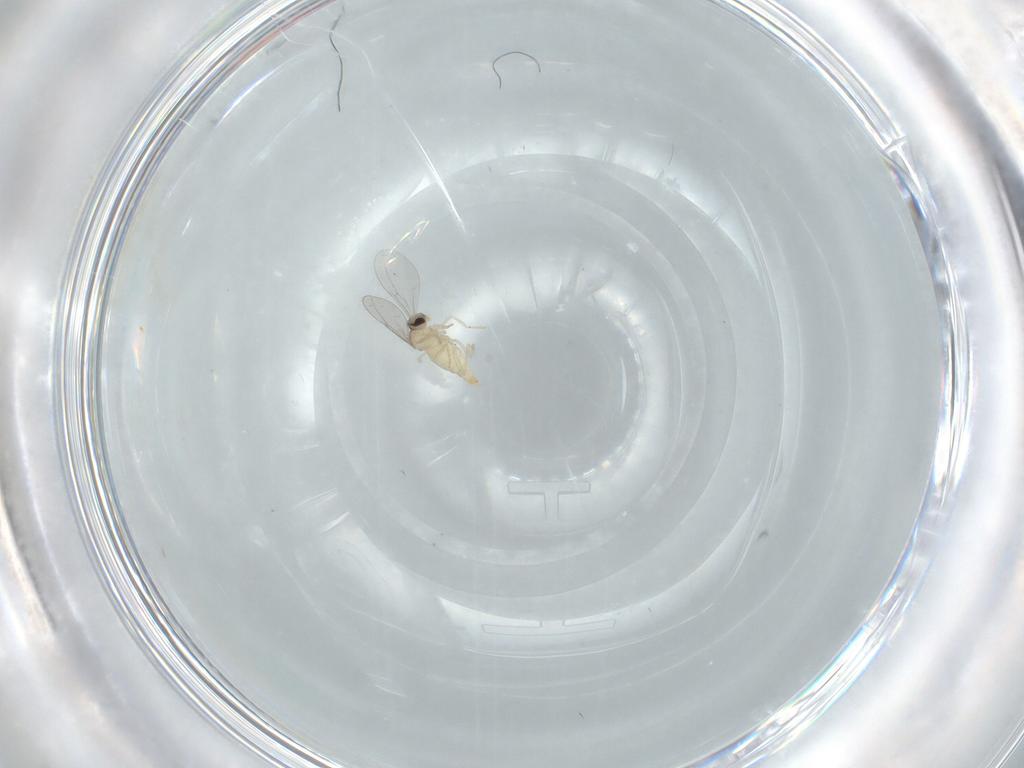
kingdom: Animalia
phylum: Arthropoda
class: Insecta
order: Diptera
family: Cecidomyiidae
